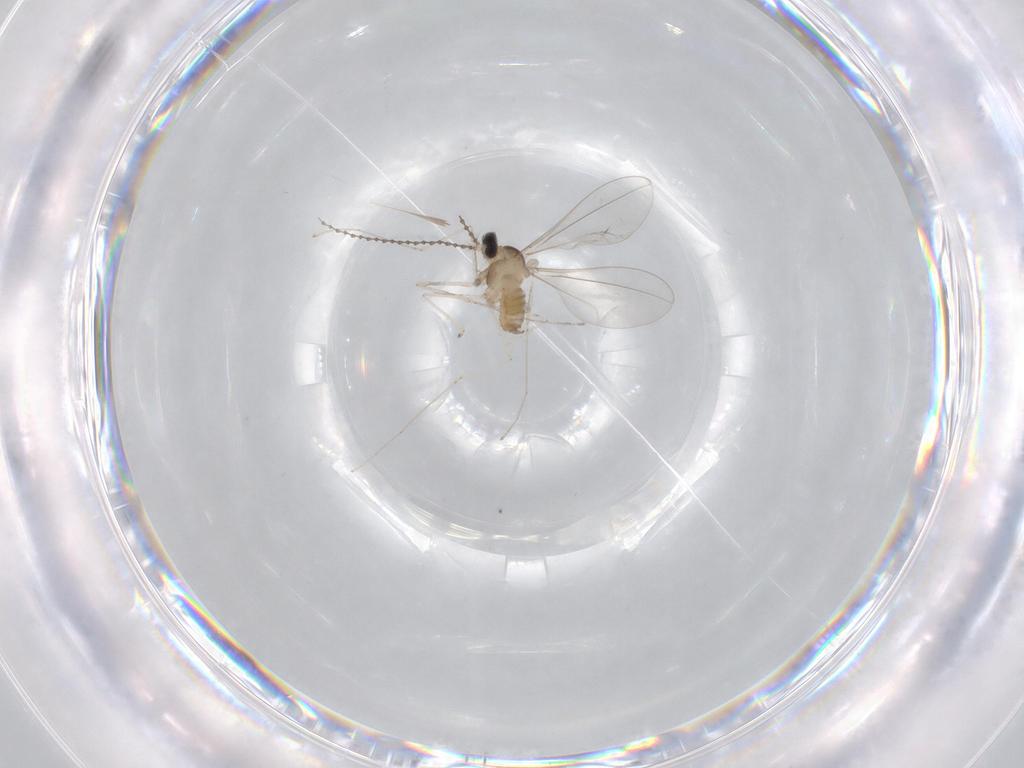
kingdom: Animalia
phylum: Arthropoda
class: Insecta
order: Diptera
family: Cecidomyiidae
